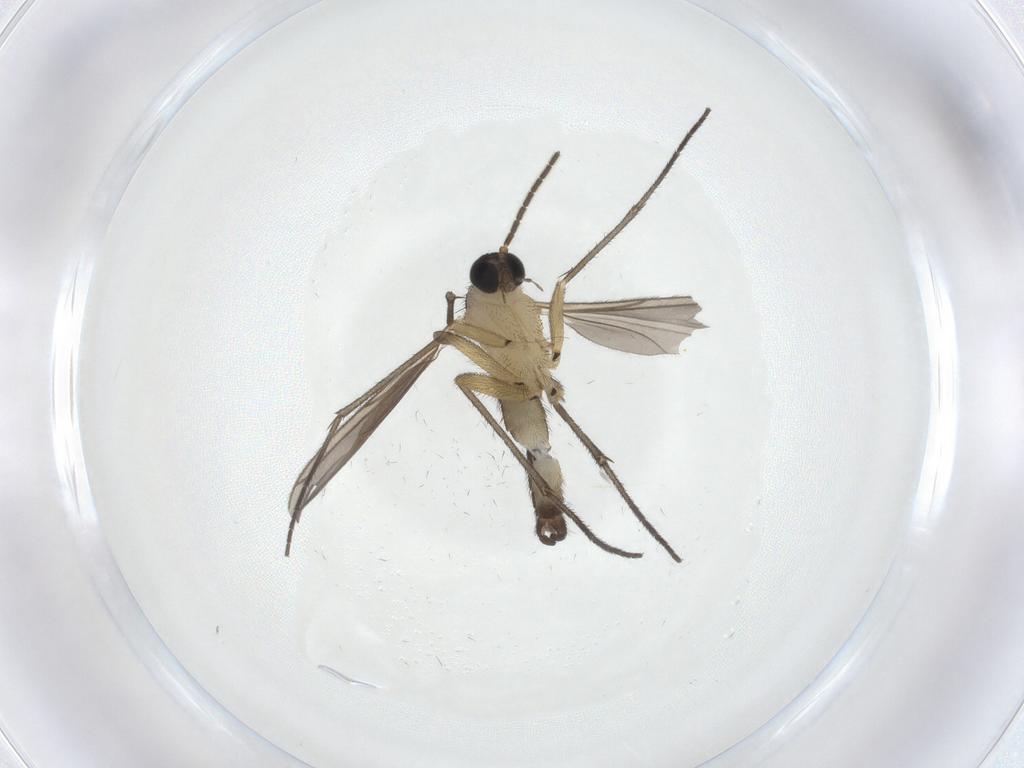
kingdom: Animalia
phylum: Arthropoda
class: Insecta
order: Diptera
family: Sciaridae
